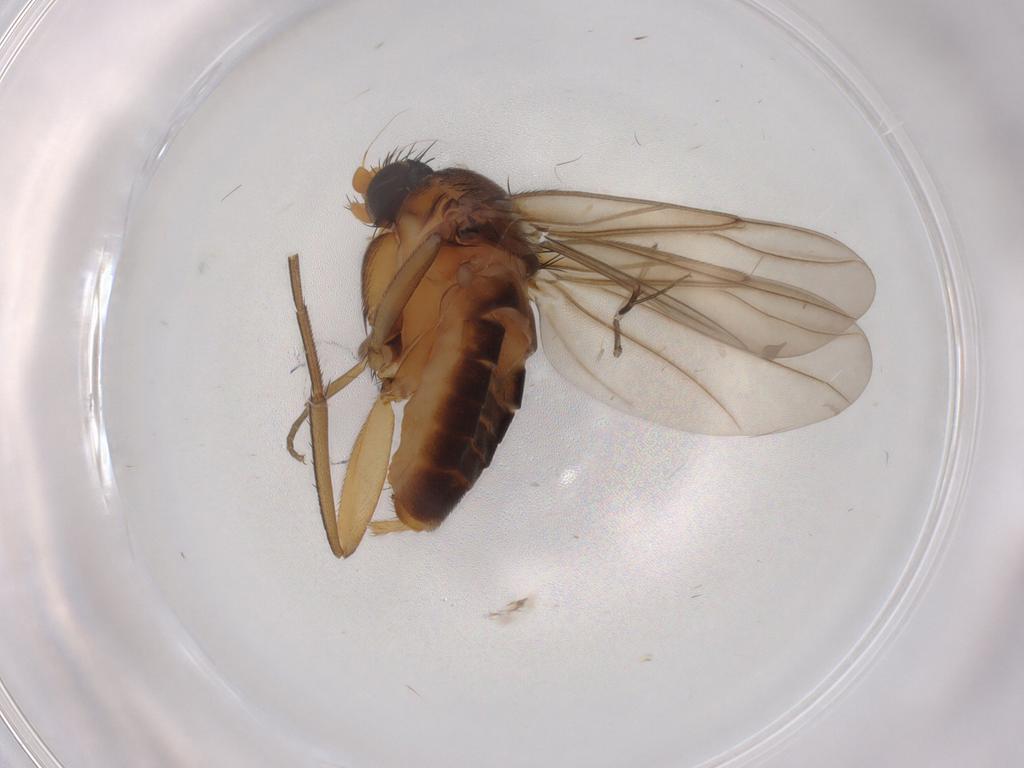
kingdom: Animalia
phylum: Arthropoda
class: Insecta
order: Diptera
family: Sciaridae
